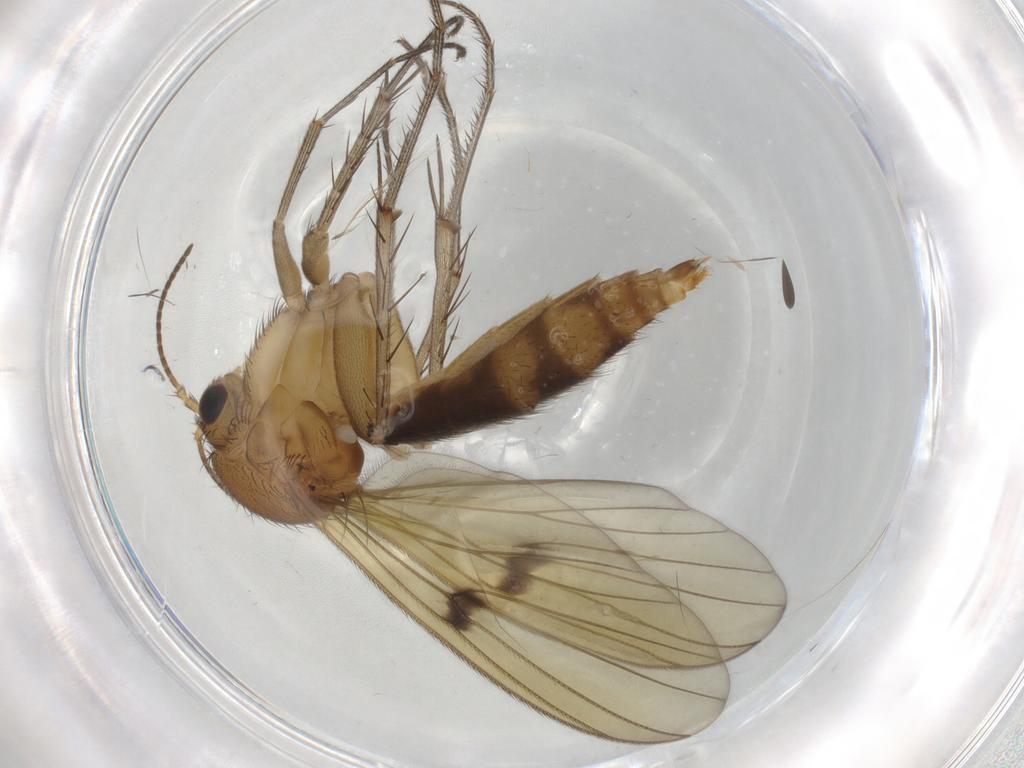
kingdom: Animalia
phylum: Arthropoda
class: Insecta
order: Diptera
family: Mycetophilidae
